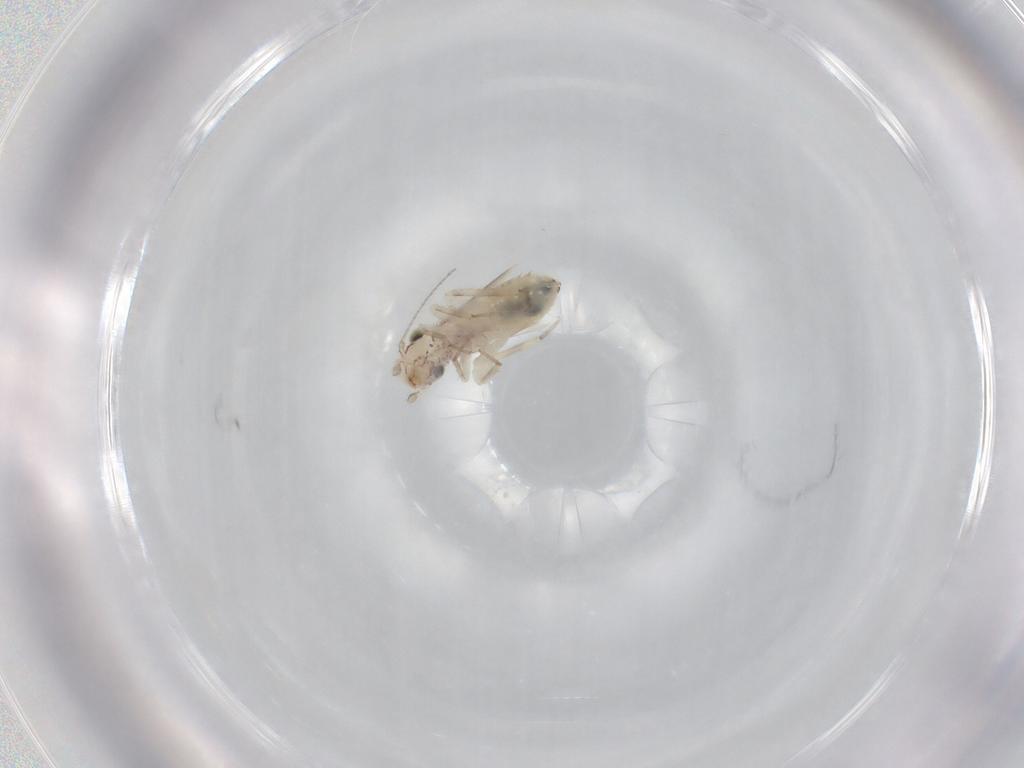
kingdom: Animalia
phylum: Arthropoda
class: Insecta
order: Psocodea
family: Lepidopsocidae
